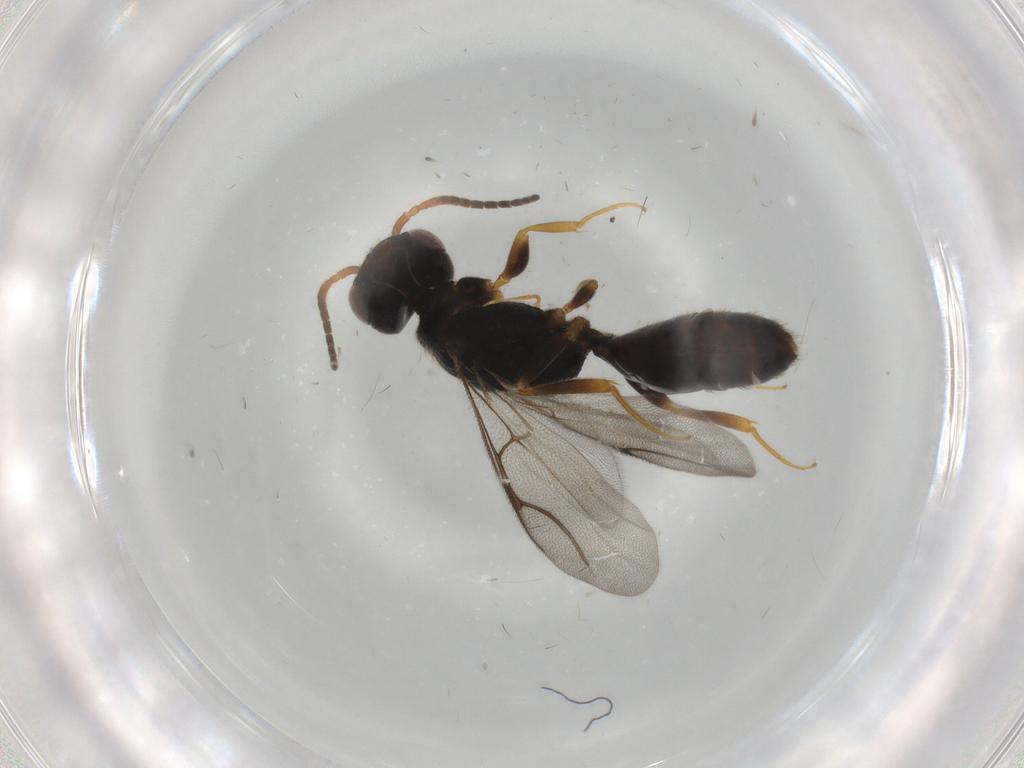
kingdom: Animalia
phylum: Arthropoda
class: Insecta
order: Hymenoptera
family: Bethylidae
